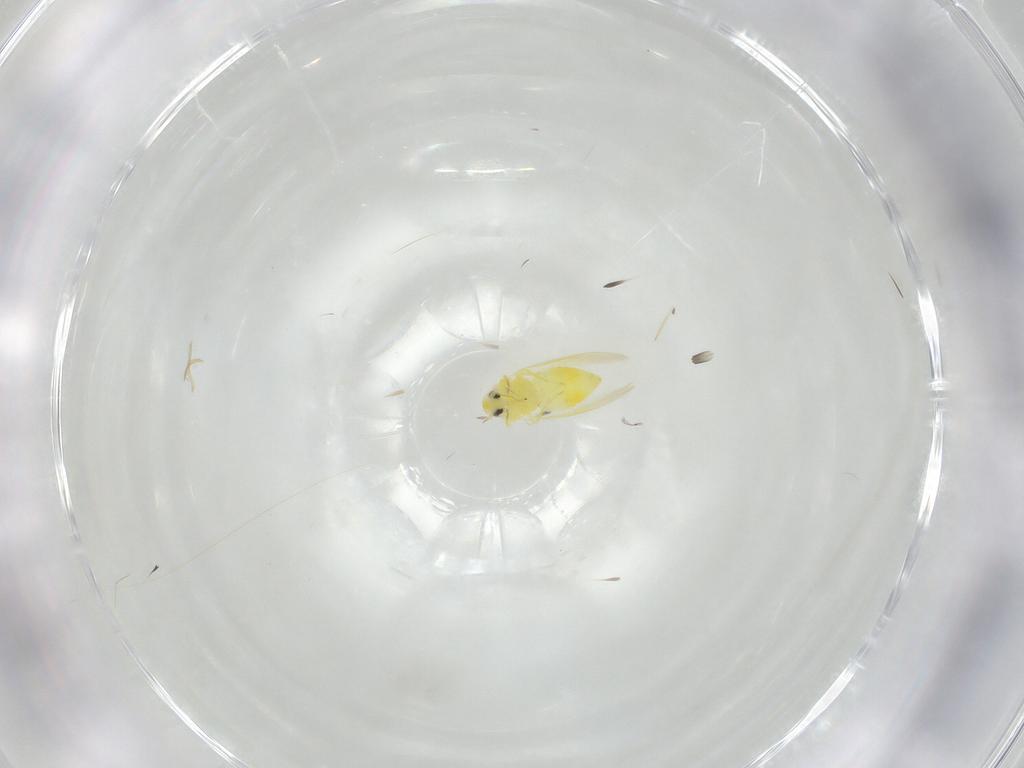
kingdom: Animalia
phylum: Arthropoda
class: Insecta
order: Hemiptera
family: Aleyrodidae
